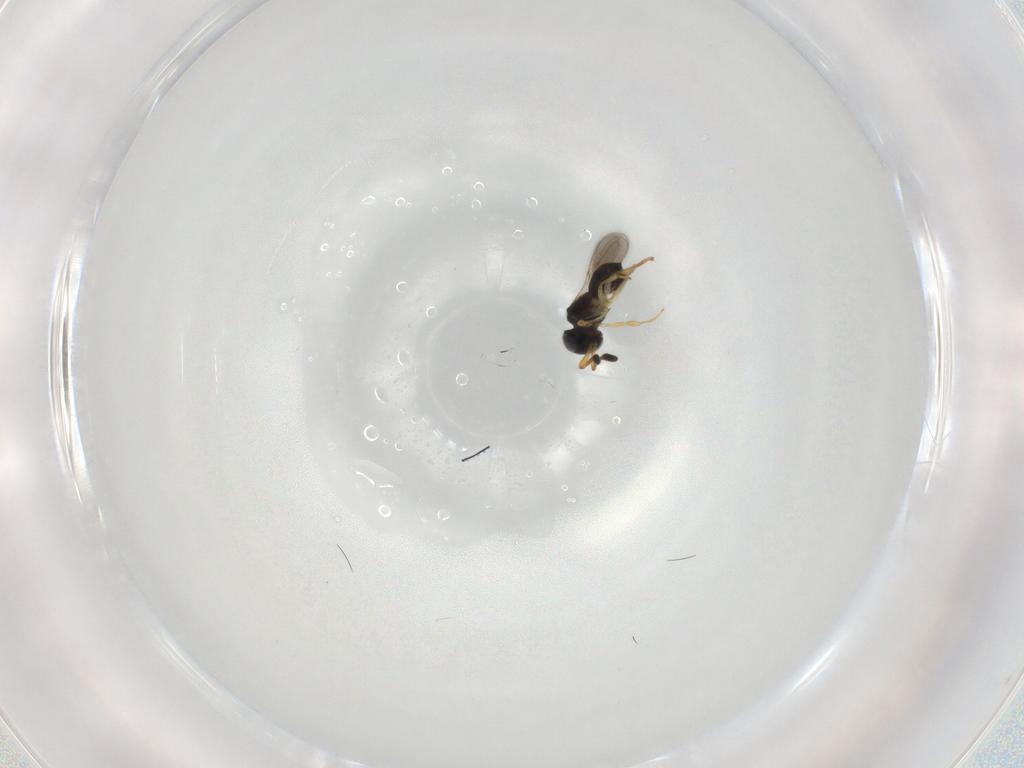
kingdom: Animalia
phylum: Arthropoda
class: Insecta
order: Hymenoptera
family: Scelionidae
